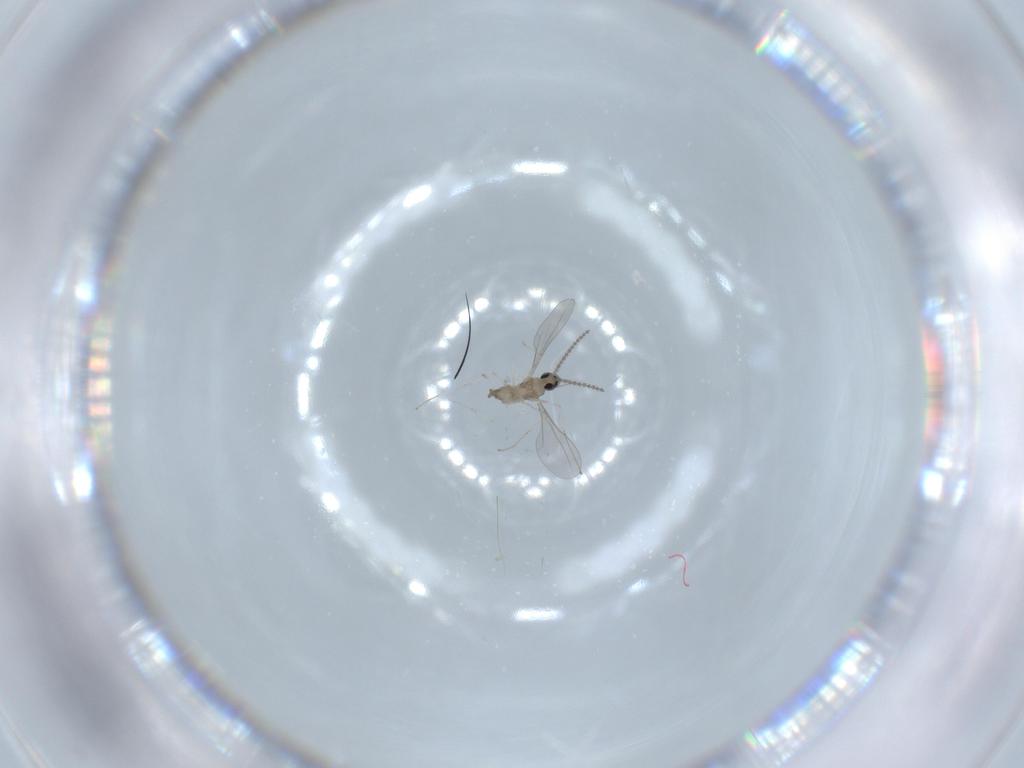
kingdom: Animalia
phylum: Arthropoda
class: Insecta
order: Diptera
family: Cecidomyiidae
